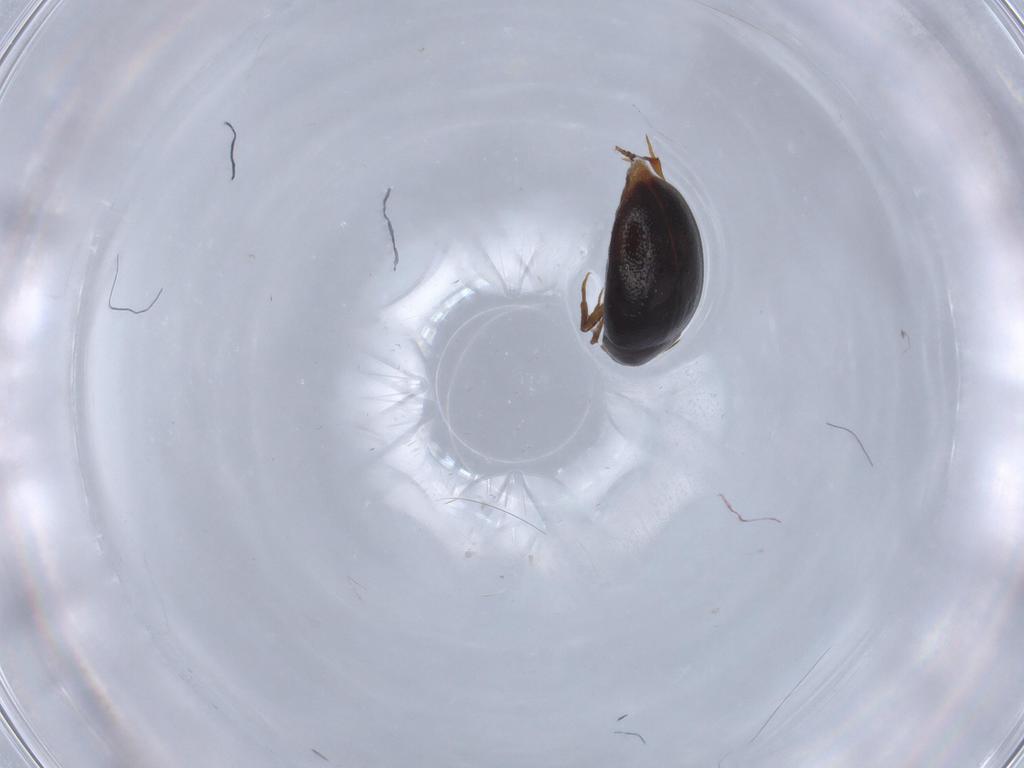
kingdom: Animalia
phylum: Arthropoda
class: Insecta
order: Coleoptera
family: Melandryidae
